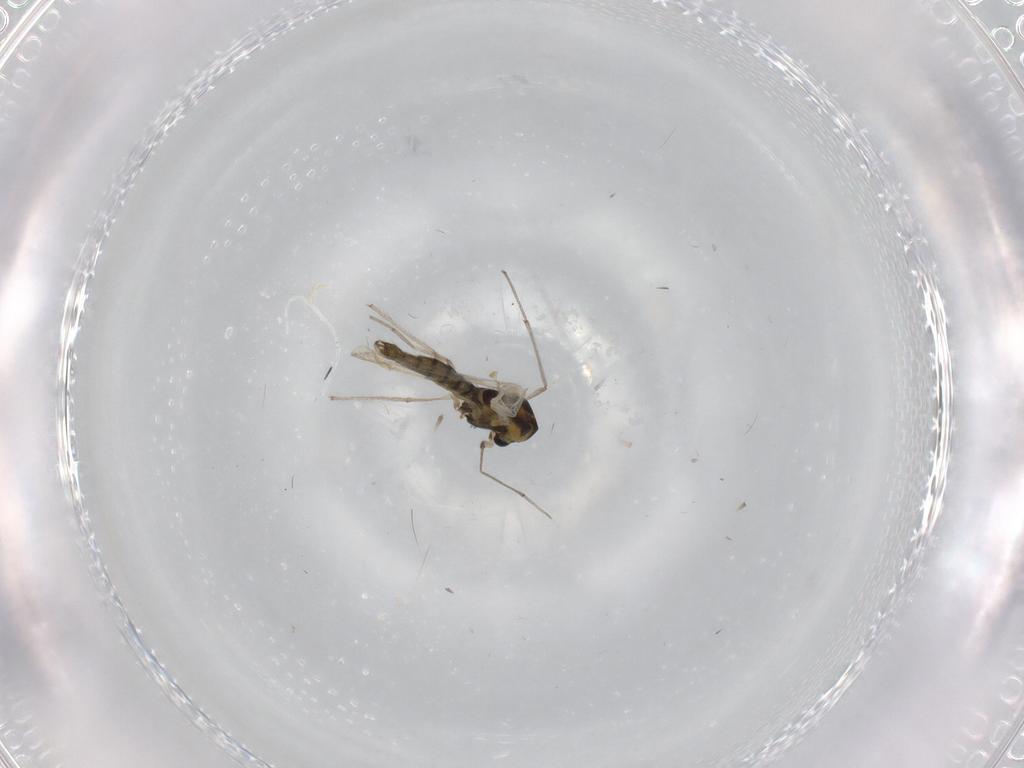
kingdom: Animalia
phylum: Arthropoda
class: Insecta
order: Diptera
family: Chironomidae
